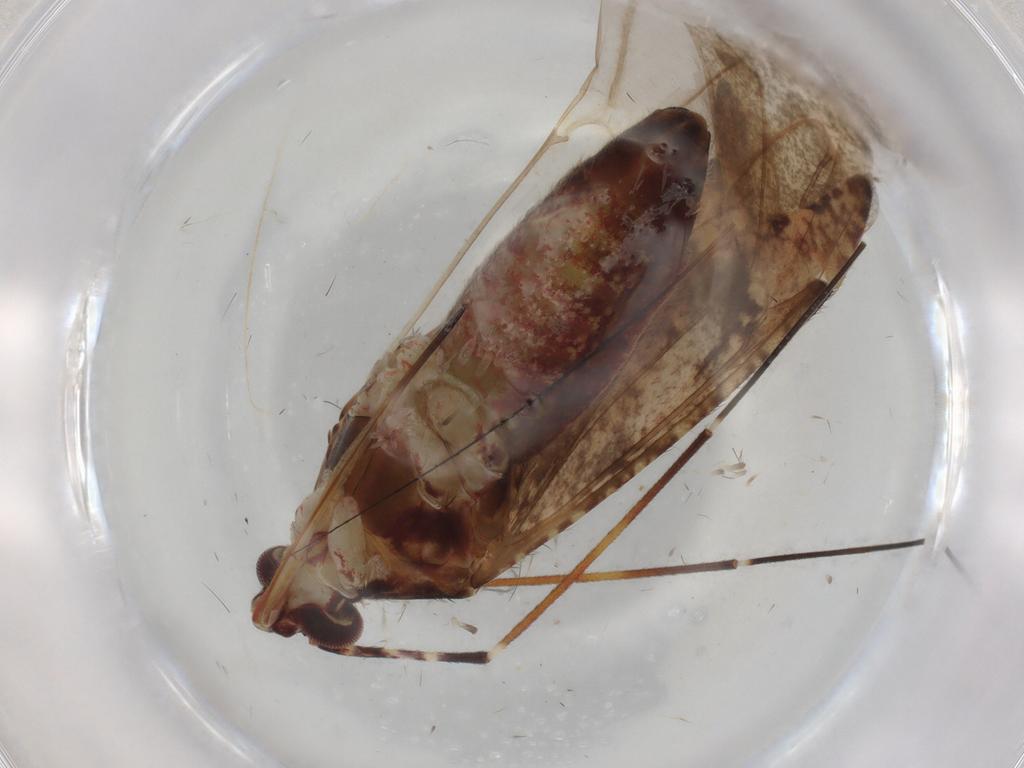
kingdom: Animalia
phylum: Arthropoda
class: Insecta
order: Hemiptera
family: Miridae
